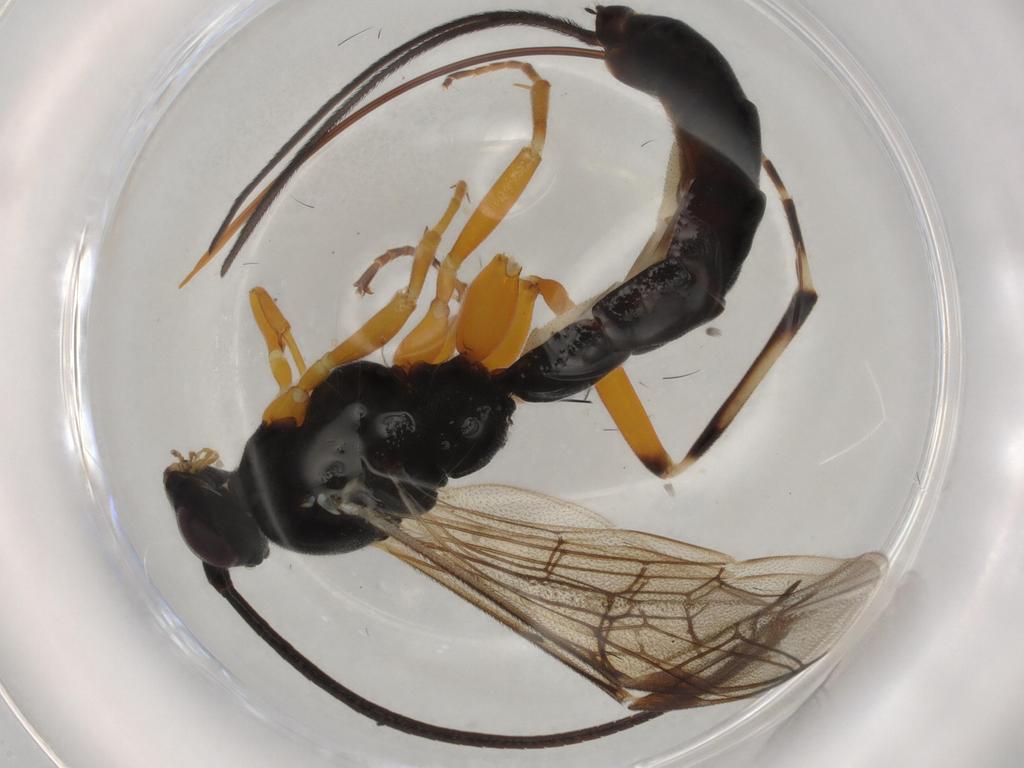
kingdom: Animalia
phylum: Arthropoda
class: Insecta
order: Hymenoptera
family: Ichneumonidae
